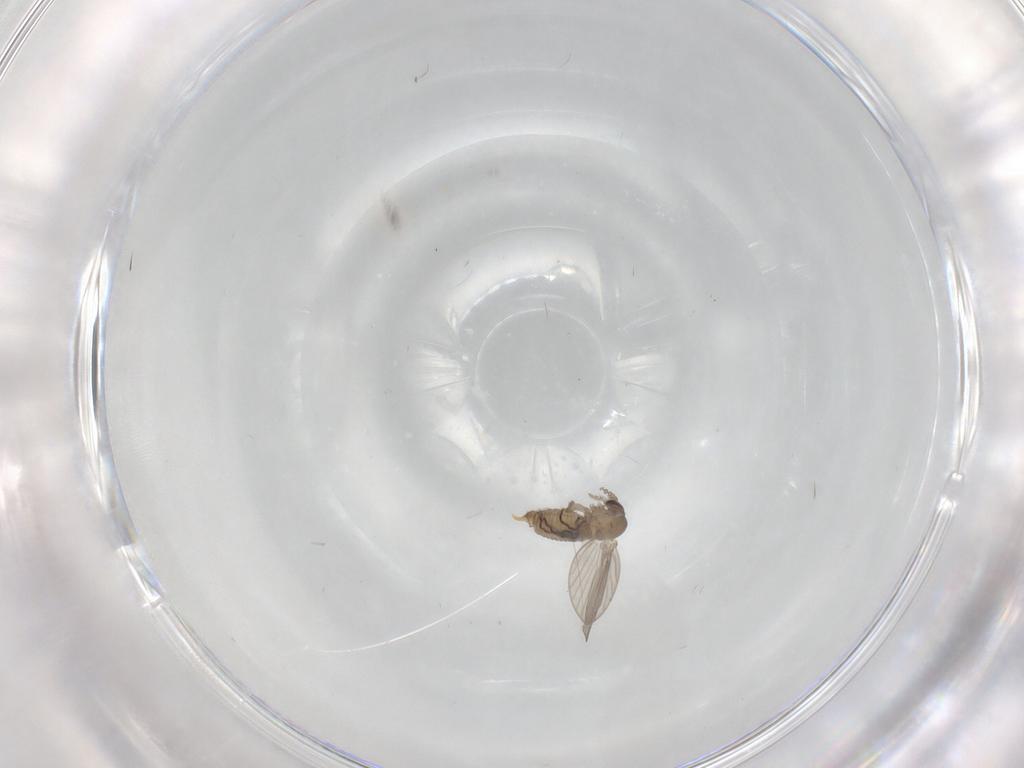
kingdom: Animalia
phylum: Arthropoda
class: Insecta
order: Diptera
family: Psychodidae
